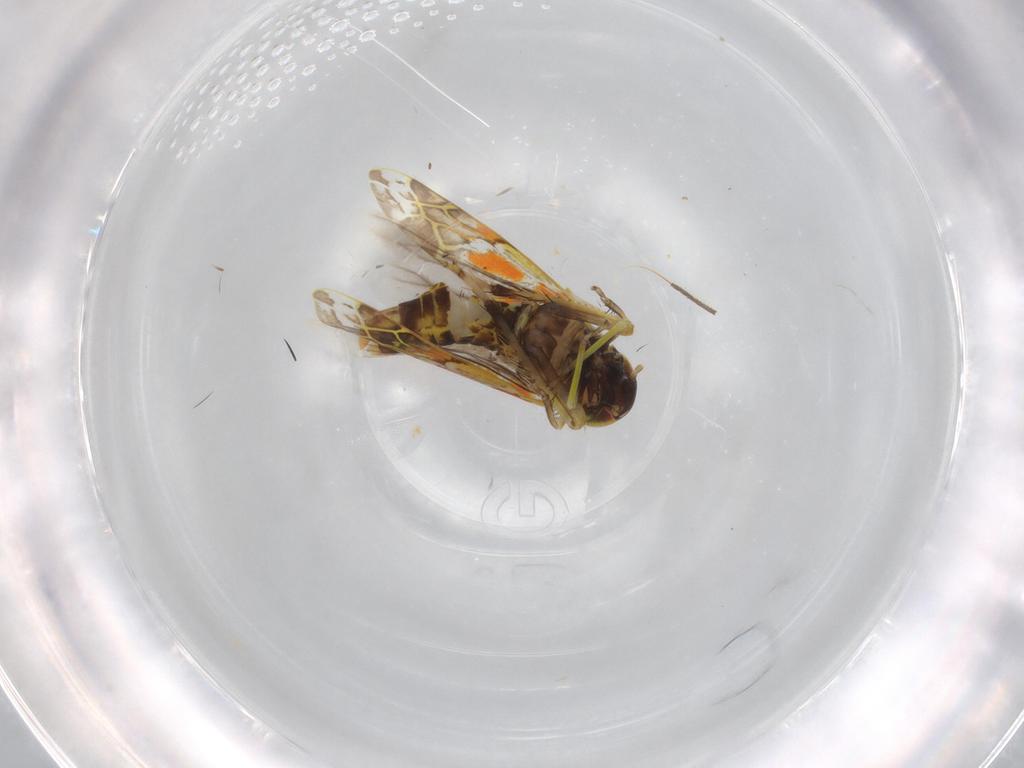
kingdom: Animalia
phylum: Arthropoda
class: Insecta
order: Hemiptera
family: Cicadellidae
